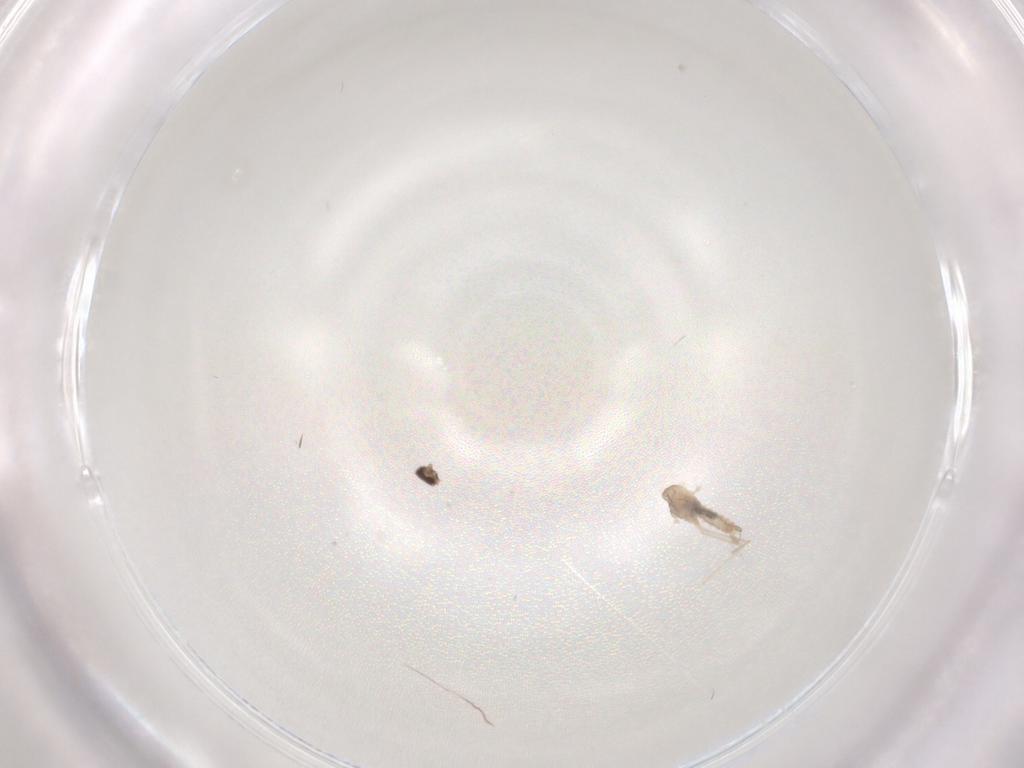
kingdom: Animalia
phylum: Arthropoda
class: Insecta
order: Diptera
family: Cecidomyiidae
